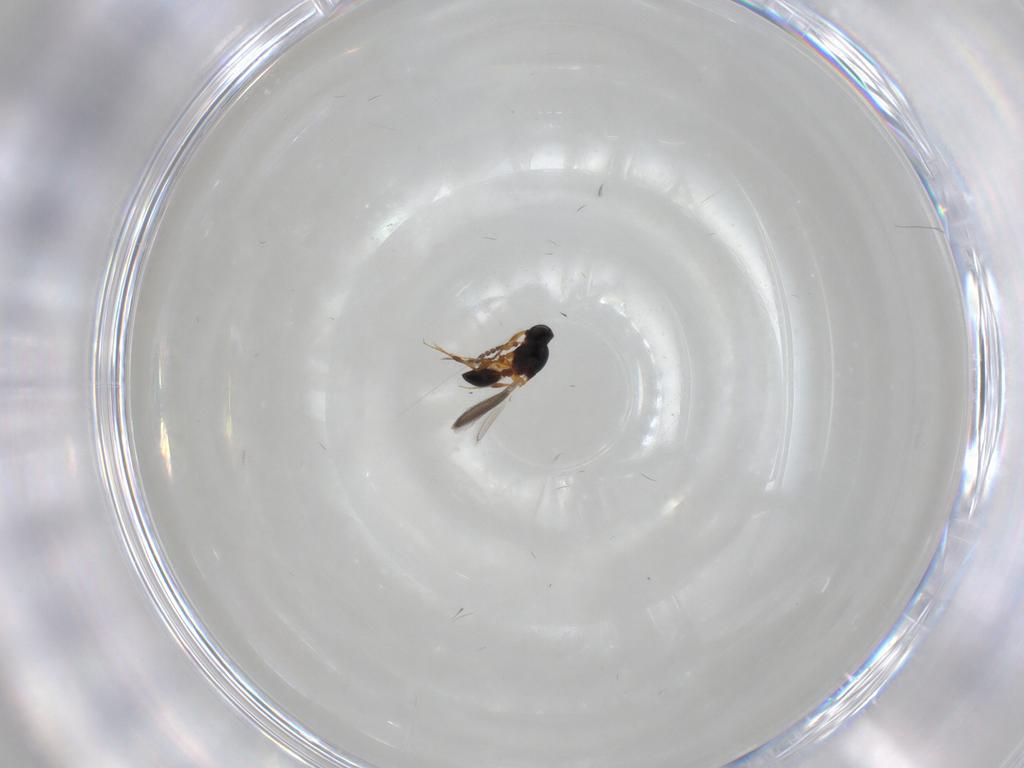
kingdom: Animalia
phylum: Arthropoda
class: Insecta
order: Hymenoptera
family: Platygastridae
